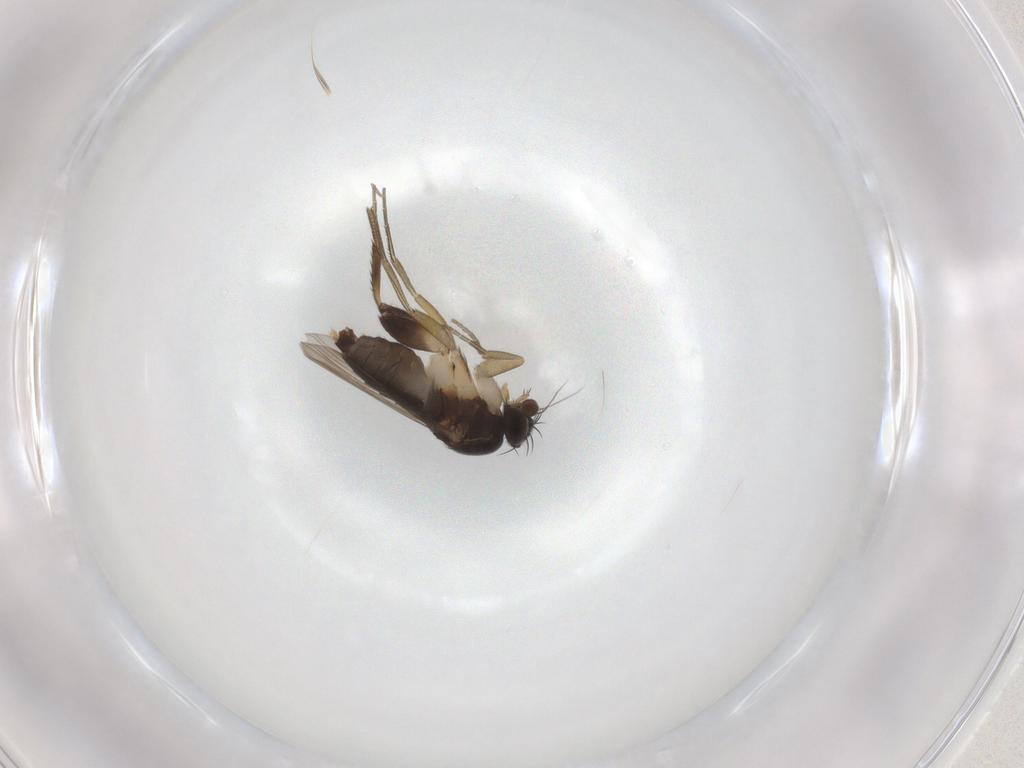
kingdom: Animalia
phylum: Arthropoda
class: Insecta
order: Diptera
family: Phoridae
